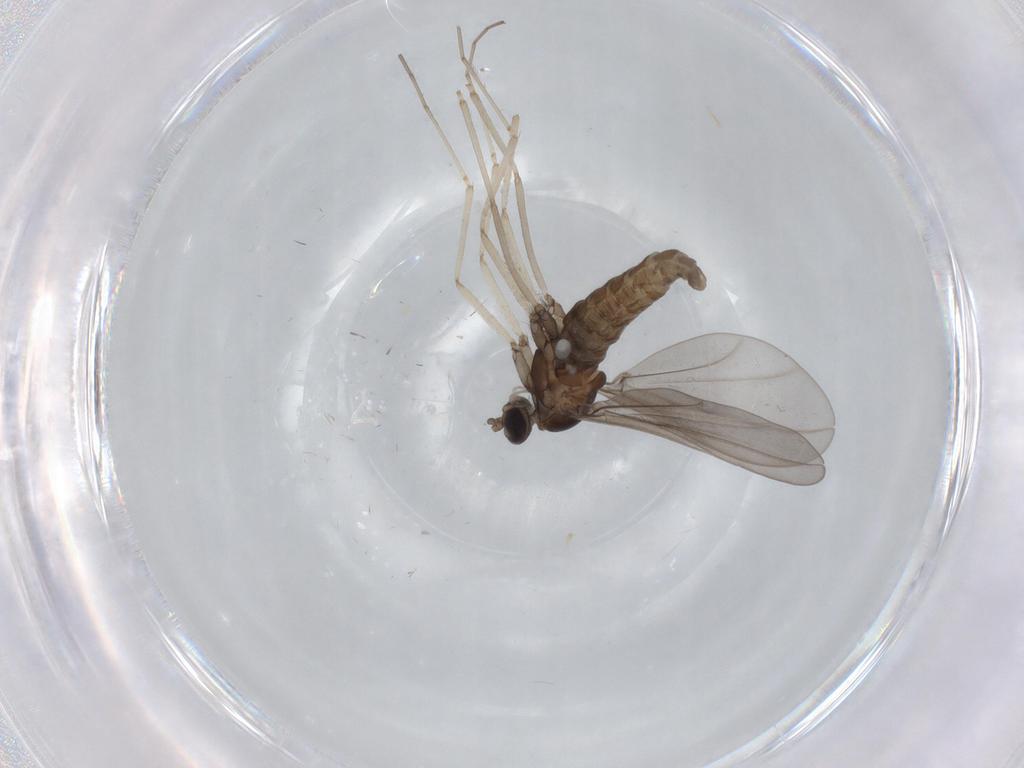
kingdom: Animalia
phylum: Arthropoda
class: Insecta
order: Diptera
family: Cecidomyiidae
